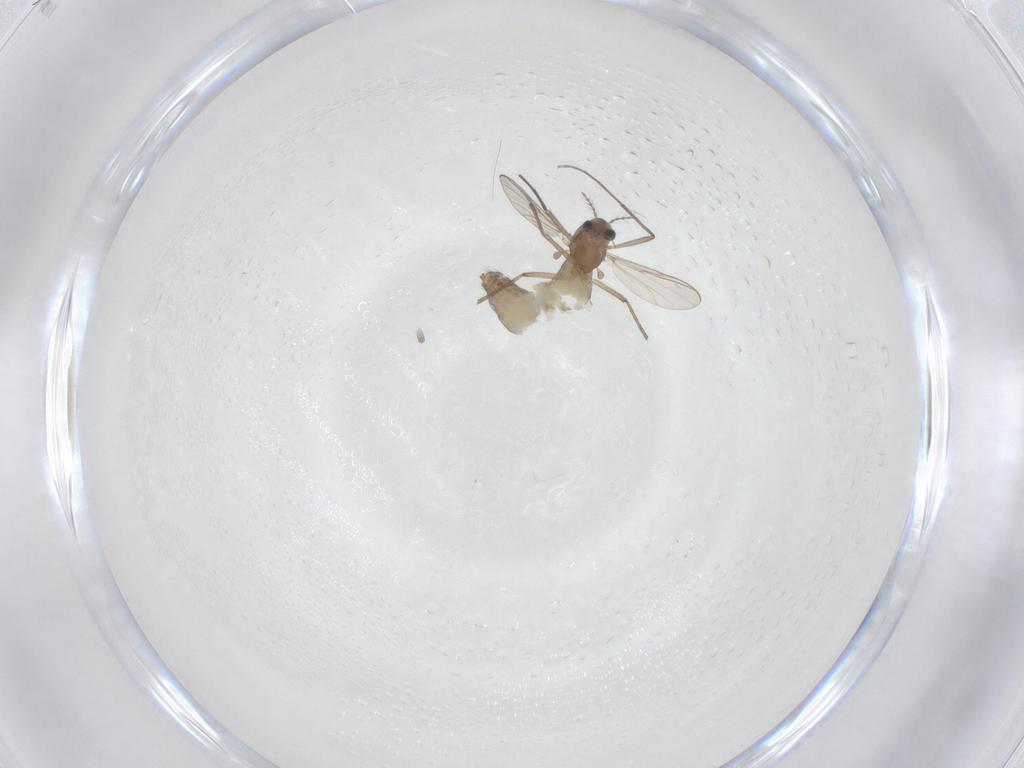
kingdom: Animalia
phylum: Arthropoda
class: Insecta
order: Diptera
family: Chironomidae
